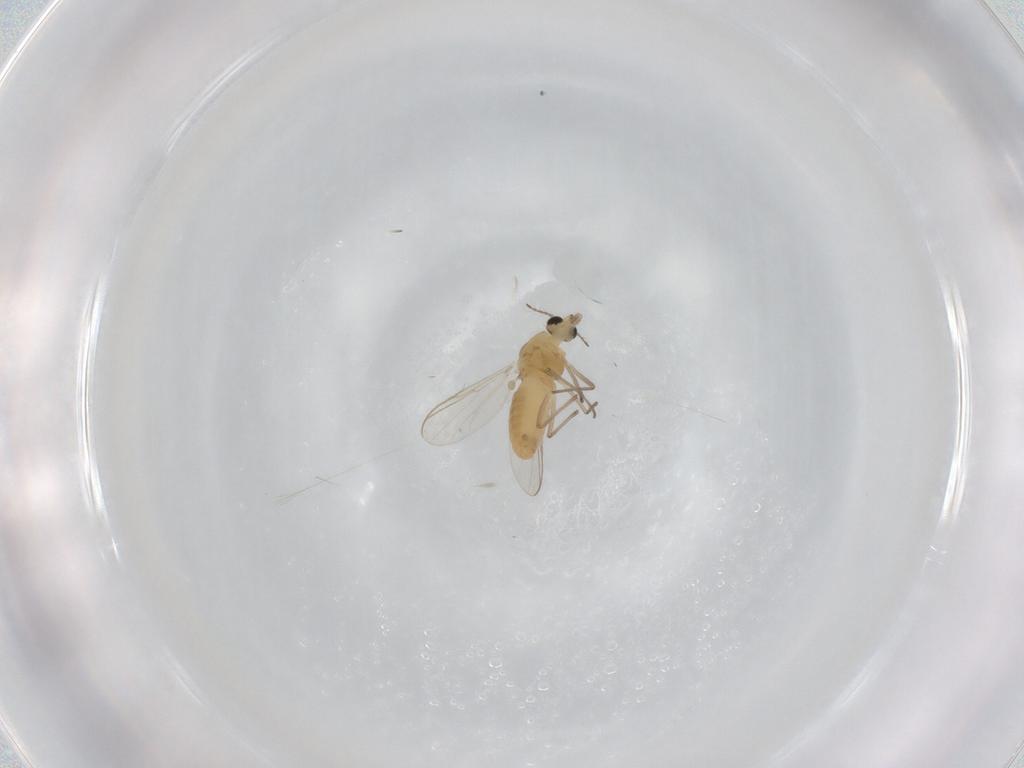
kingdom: Animalia
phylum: Arthropoda
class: Insecta
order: Diptera
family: Chironomidae
